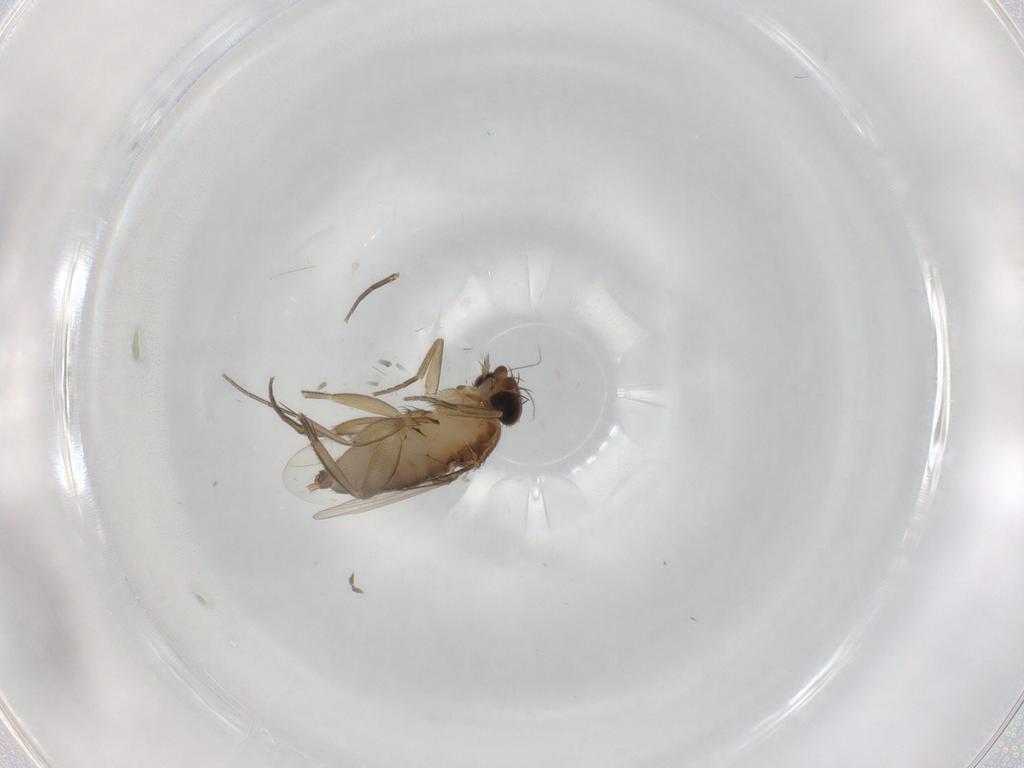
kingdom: Animalia
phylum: Arthropoda
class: Insecta
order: Diptera
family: Phoridae
